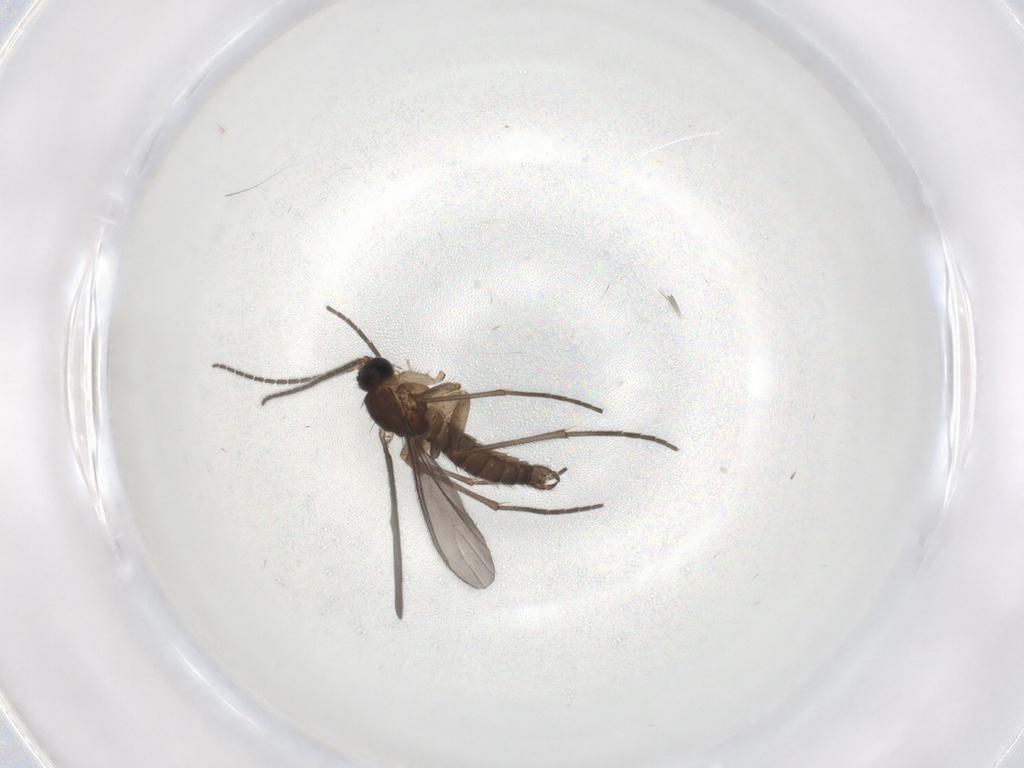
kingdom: Animalia
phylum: Arthropoda
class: Insecta
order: Diptera
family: Sciaridae
